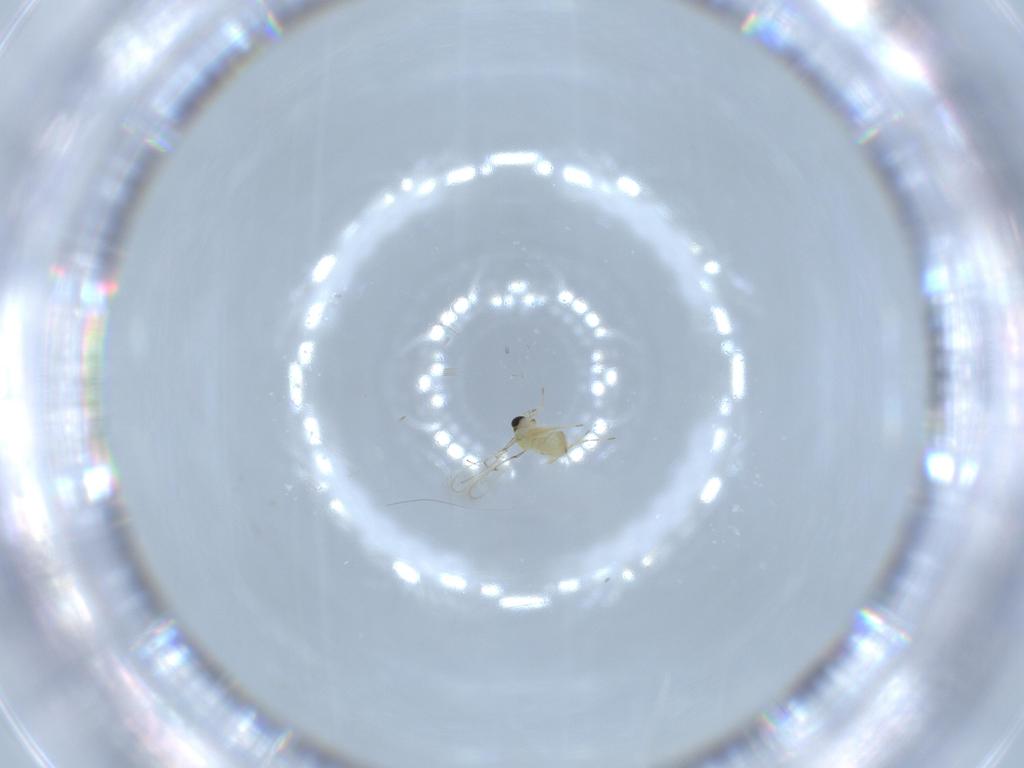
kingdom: Animalia
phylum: Arthropoda
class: Insecta
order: Hymenoptera
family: Trichogrammatidae
